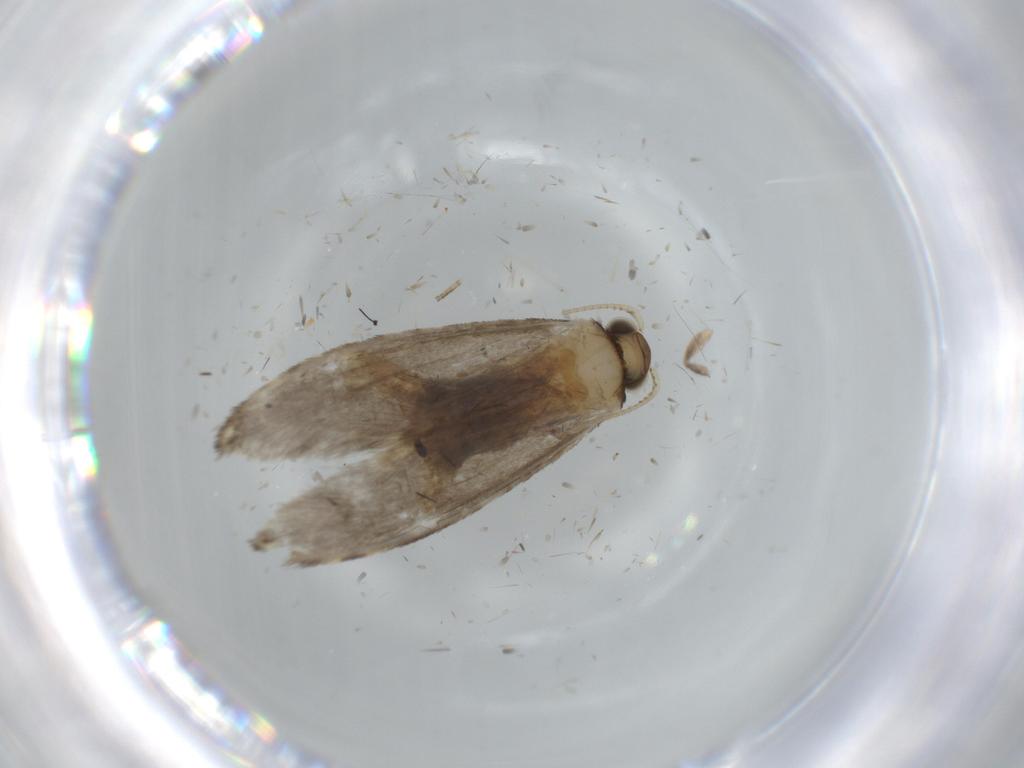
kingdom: Animalia
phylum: Arthropoda
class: Insecta
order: Lepidoptera
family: Tineidae
